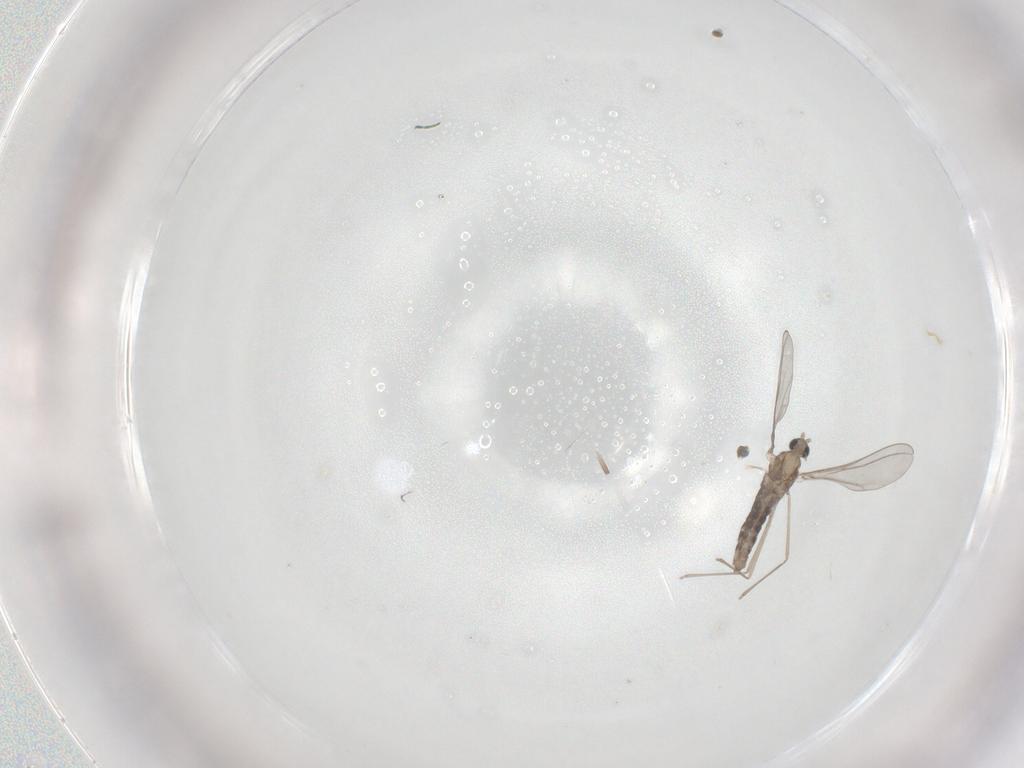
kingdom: Animalia
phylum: Arthropoda
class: Insecta
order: Diptera
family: Cecidomyiidae
